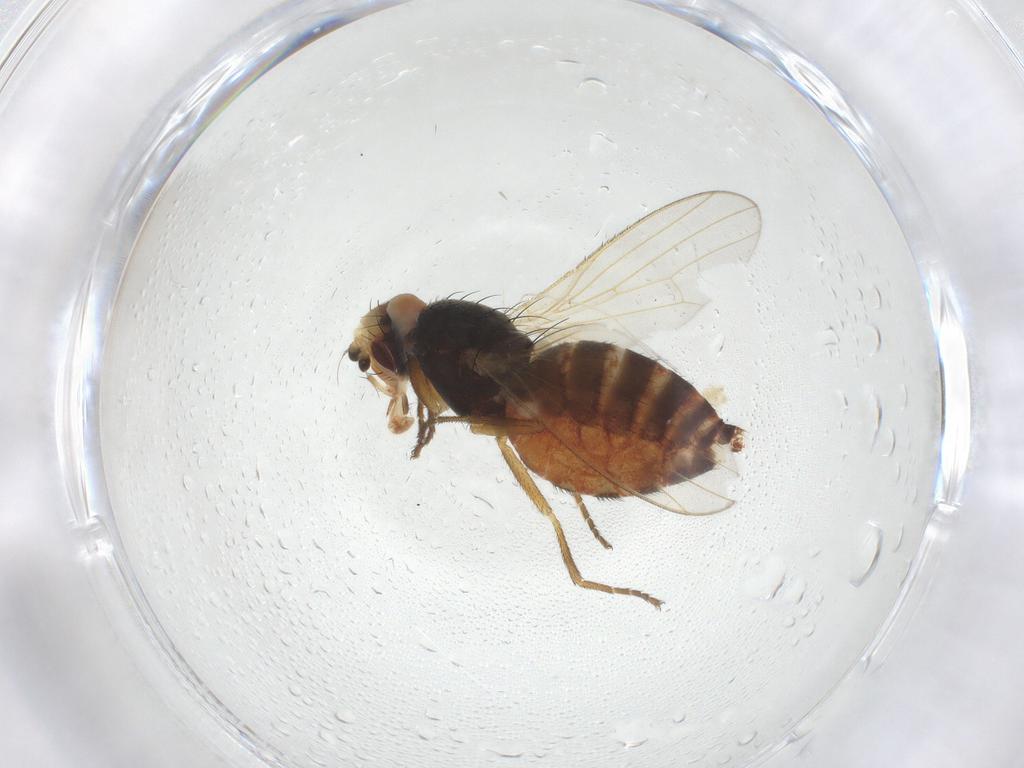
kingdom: Animalia
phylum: Arthropoda
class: Insecta
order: Diptera
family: Heleomyzidae
